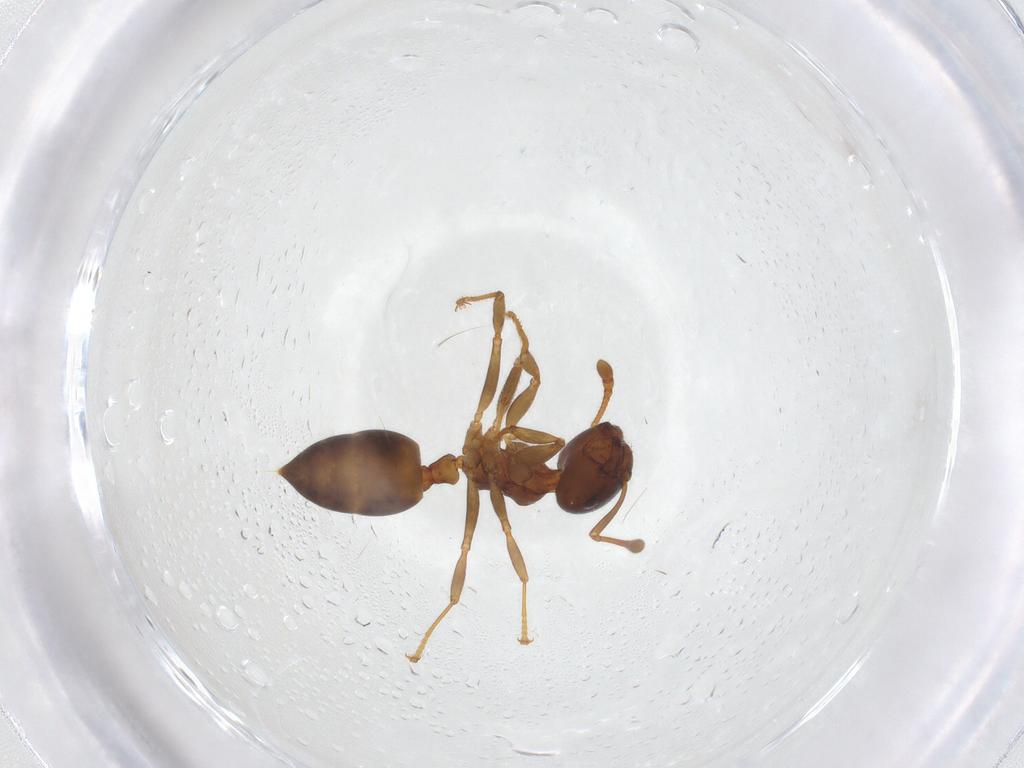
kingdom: Animalia
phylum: Arthropoda
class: Insecta
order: Hymenoptera
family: Formicidae
